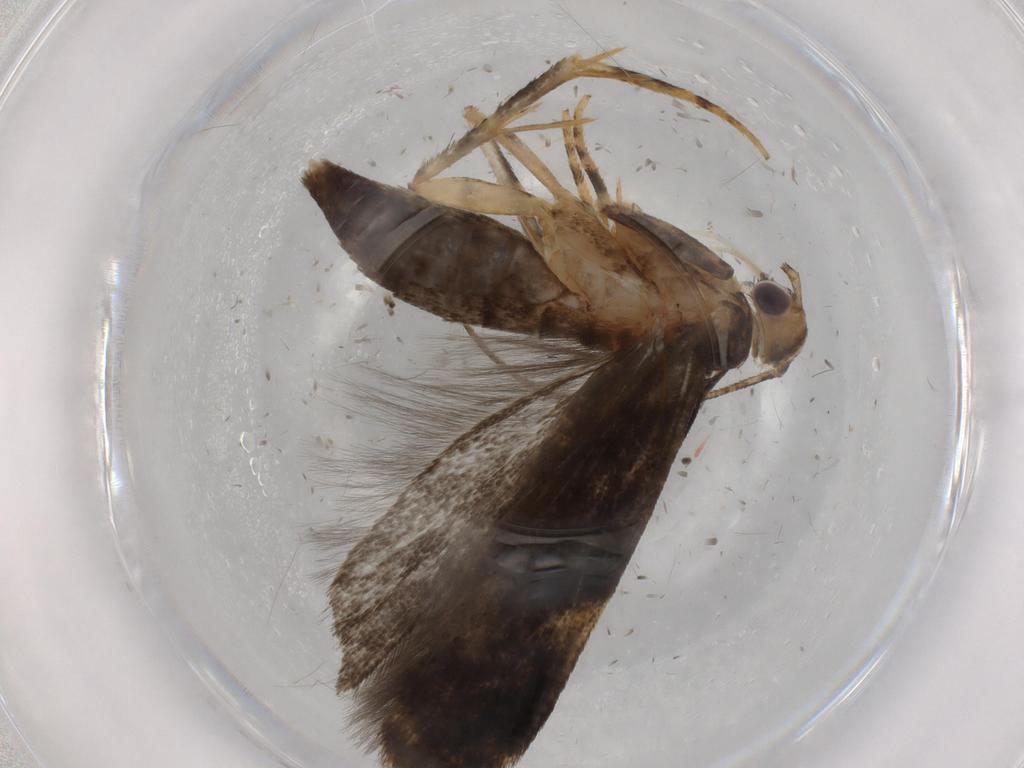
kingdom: Animalia
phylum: Arthropoda
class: Insecta
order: Lepidoptera
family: Gelechiidae
